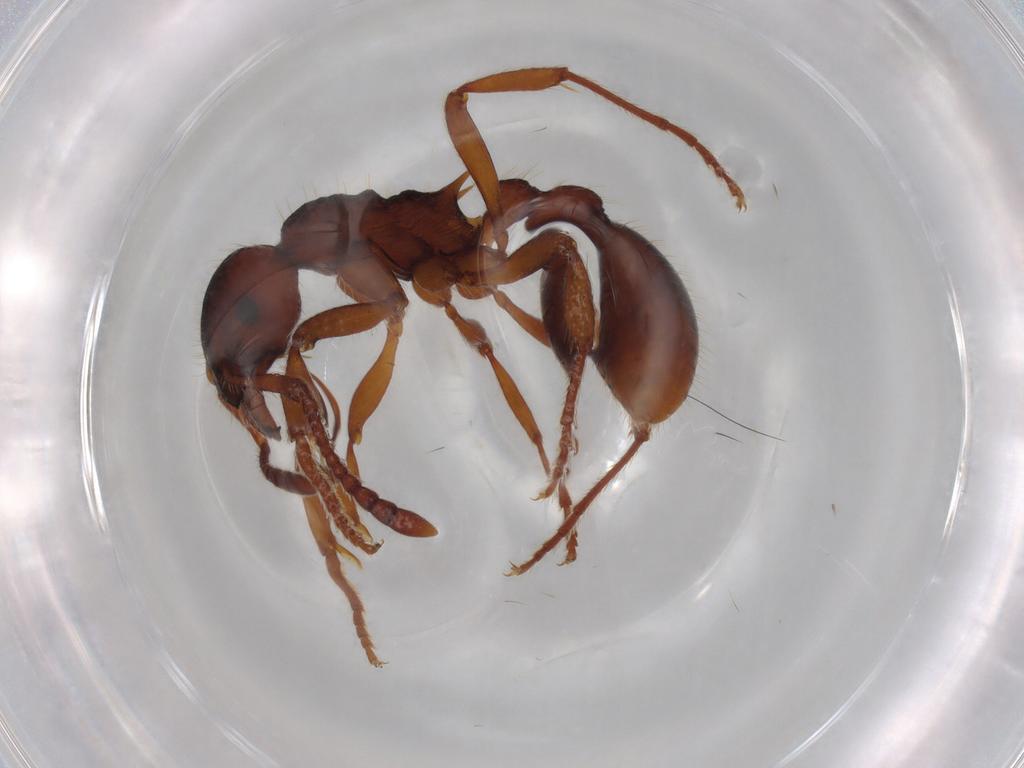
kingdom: Animalia
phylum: Arthropoda
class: Insecta
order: Hymenoptera
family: Formicidae
